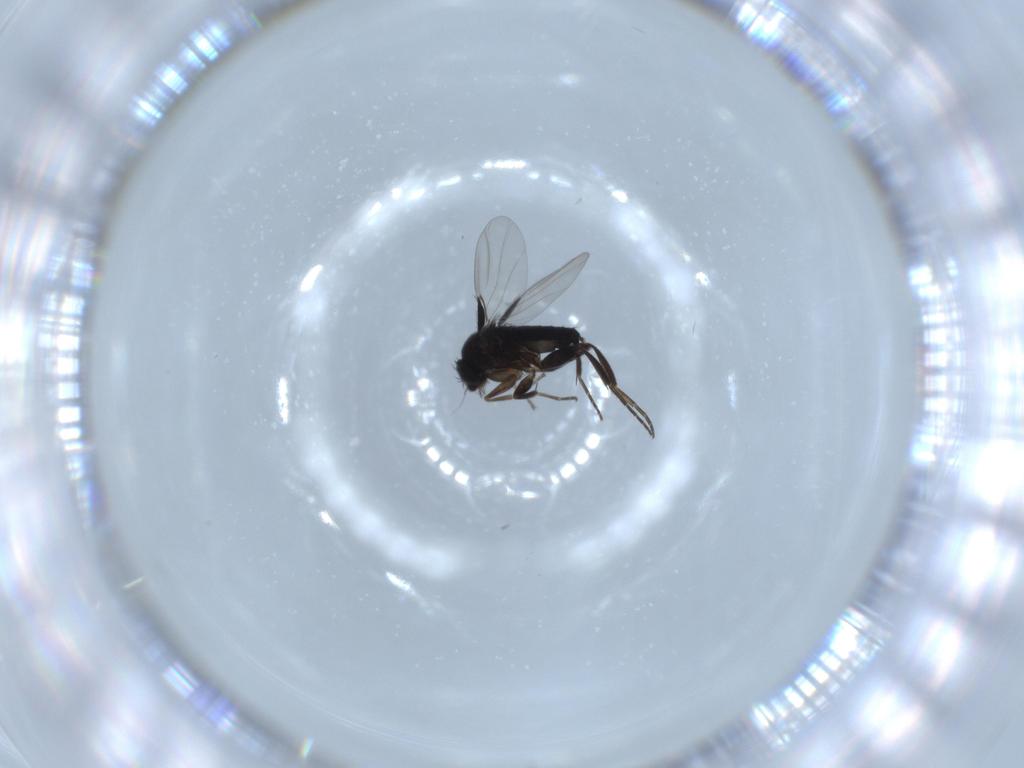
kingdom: Animalia
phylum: Arthropoda
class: Insecta
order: Diptera
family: Phoridae
